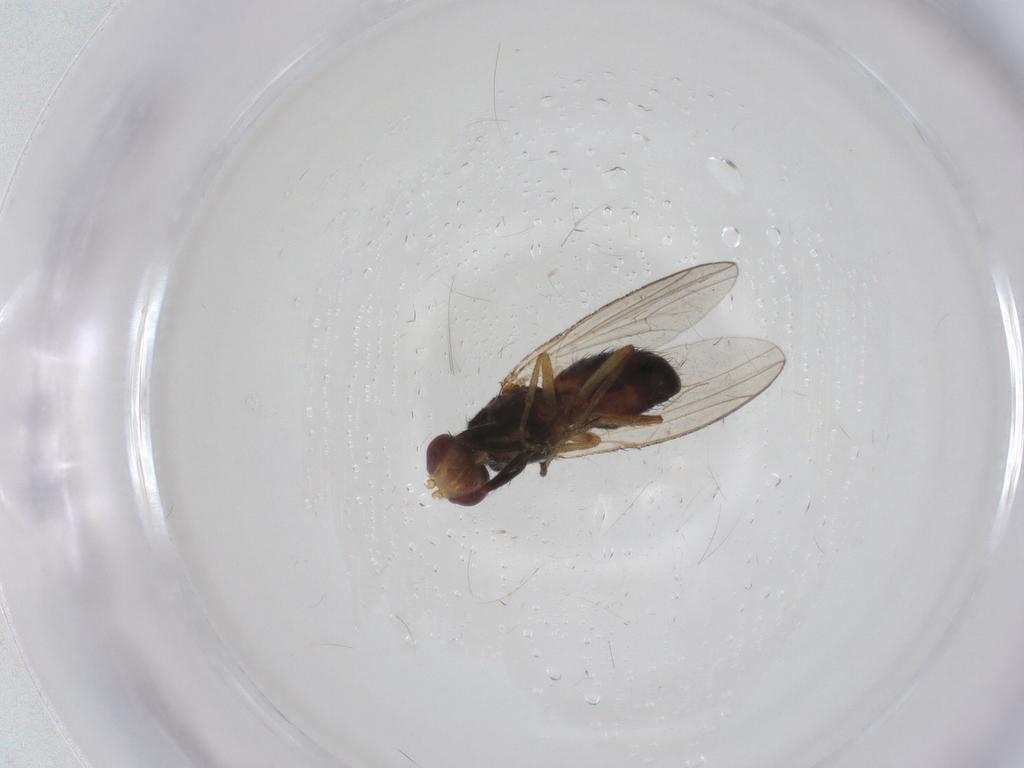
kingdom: Animalia
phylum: Arthropoda
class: Insecta
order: Diptera
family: Heleomyzidae
